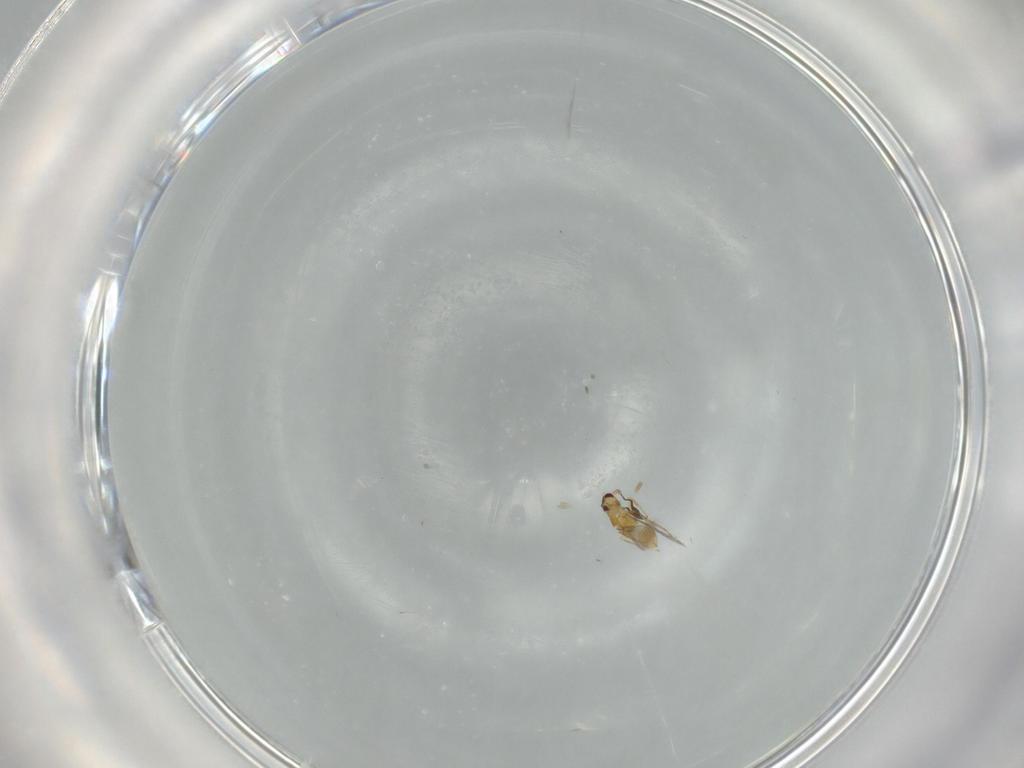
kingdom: Animalia
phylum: Arthropoda
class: Insecta
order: Hymenoptera
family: Mymaridae
